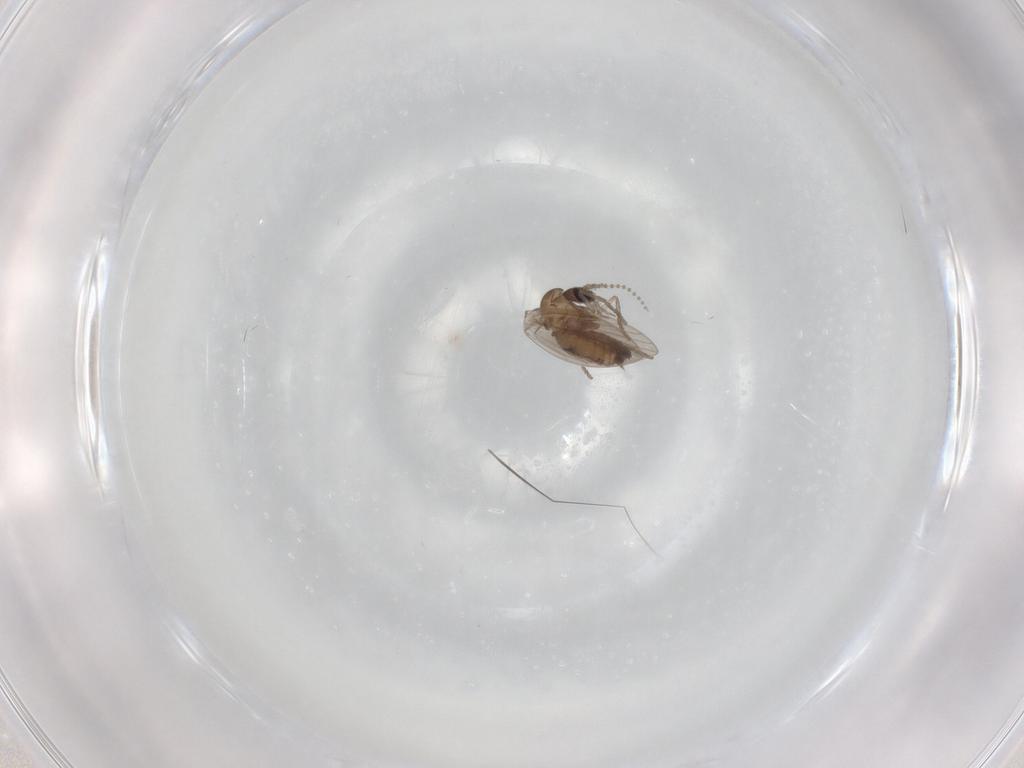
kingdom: Animalia
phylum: Arthropoda
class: Insecta
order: Diptera
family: Psychodidae
